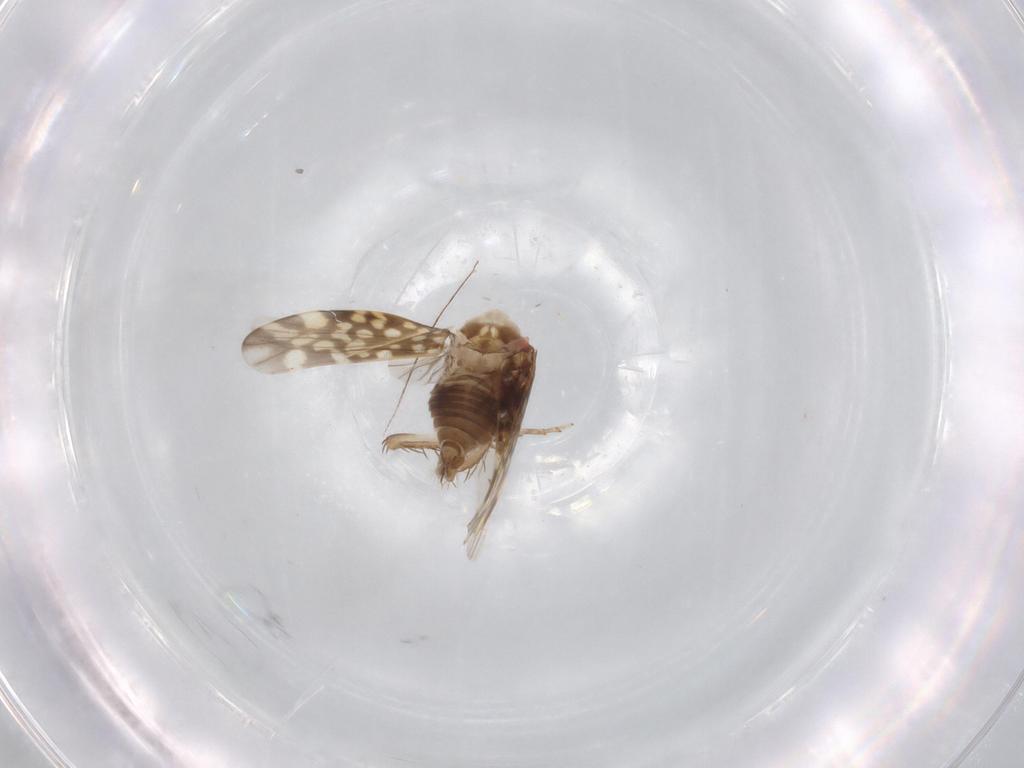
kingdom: Animalia
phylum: Arthropoda
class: Insecta
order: Hemiptera
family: Cicadellidae
